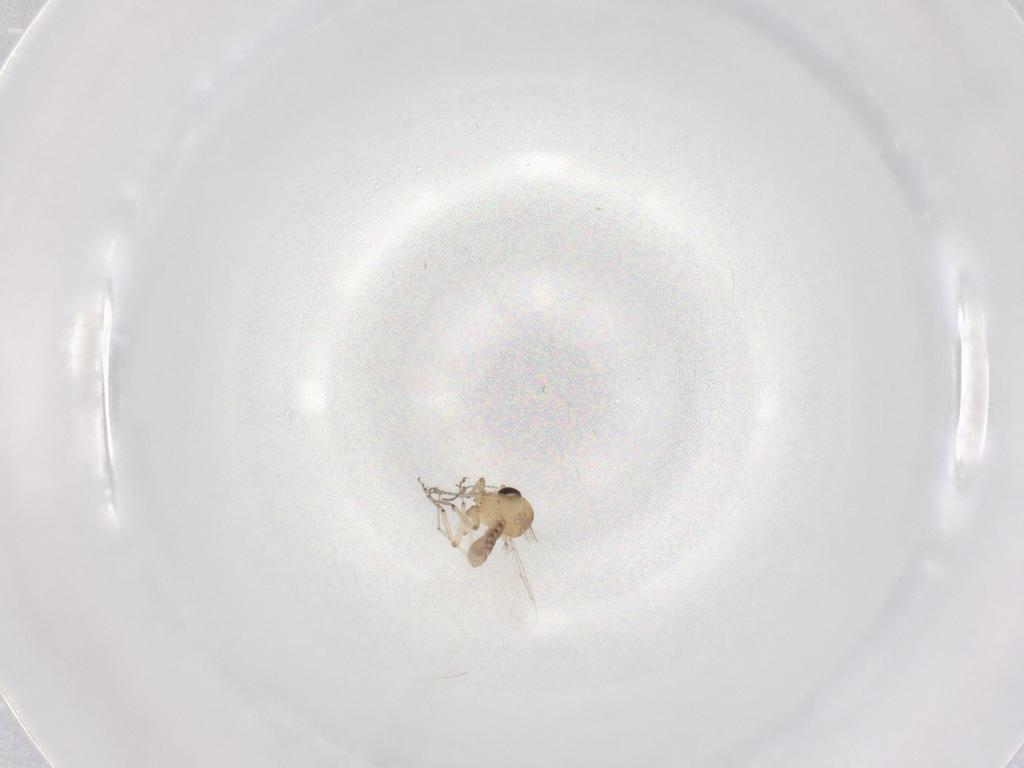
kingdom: Animalia
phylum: Arthropoda
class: Insecta
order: Diptera
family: Ceratopogonidae
